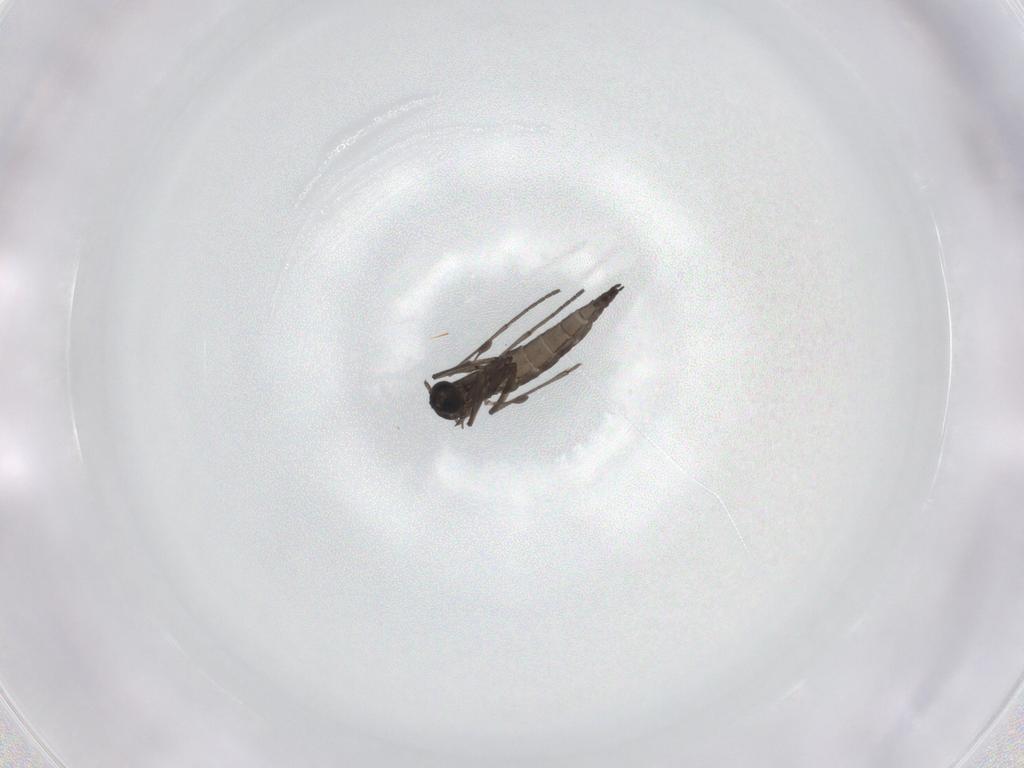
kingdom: Animalia
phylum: Arthropoda
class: Insecta
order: Diptera
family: Sciaridae
